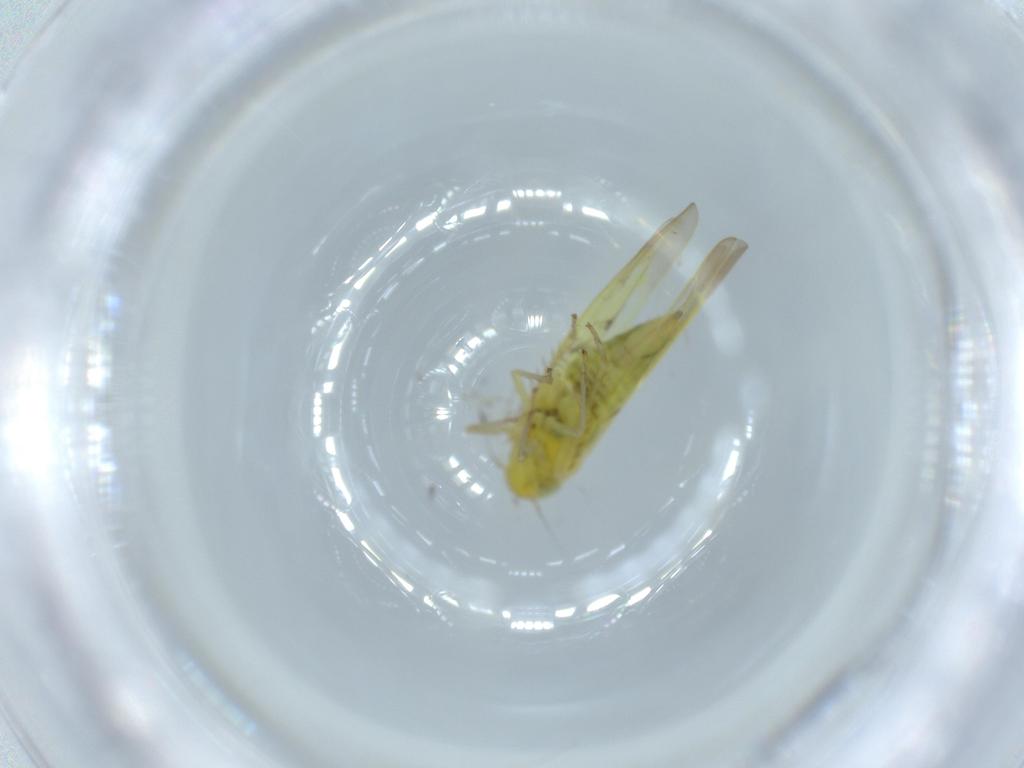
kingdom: Animalia
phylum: Arthropoda
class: Insecta
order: Hemiptera
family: Cicadellidae
